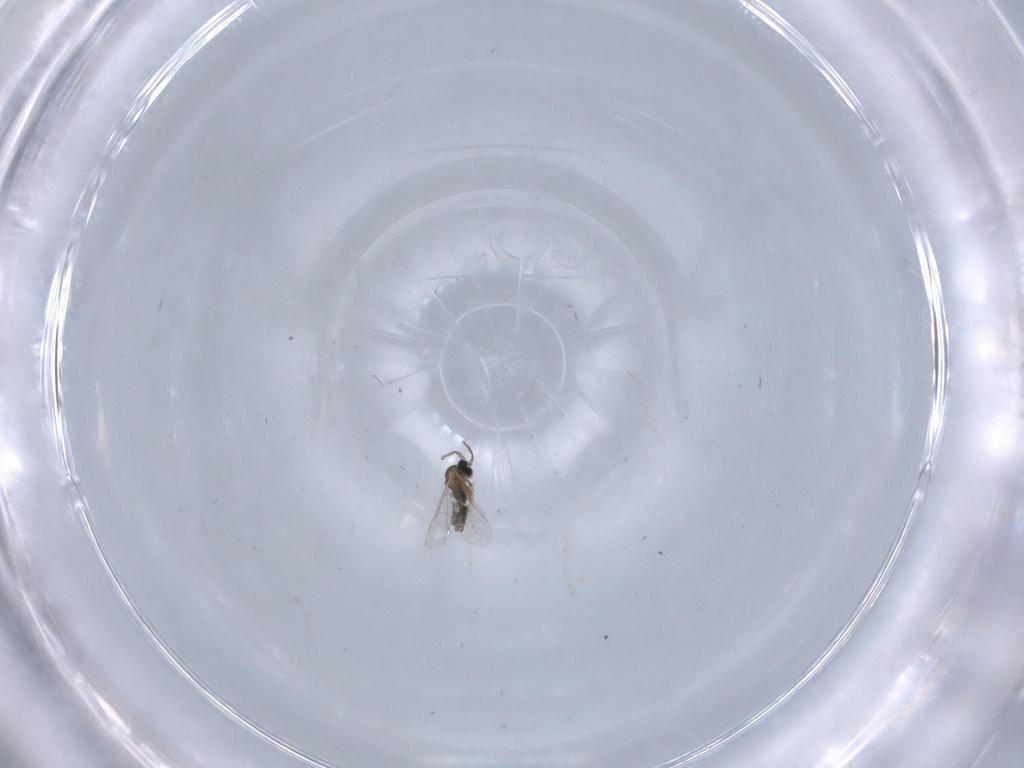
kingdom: Animalia
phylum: Arthropoda
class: Insecta
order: Diptera
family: Cecidomyiidae
